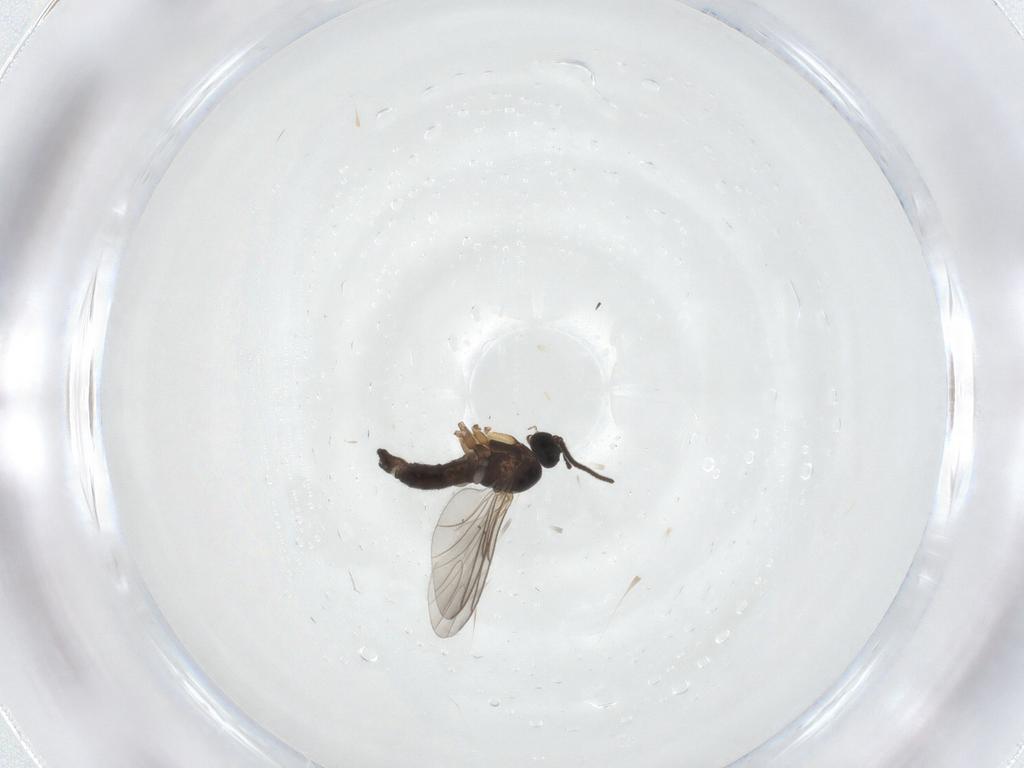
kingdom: Animalia
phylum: Arthropoda
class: Insecta
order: Diptera
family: Sciaridae
